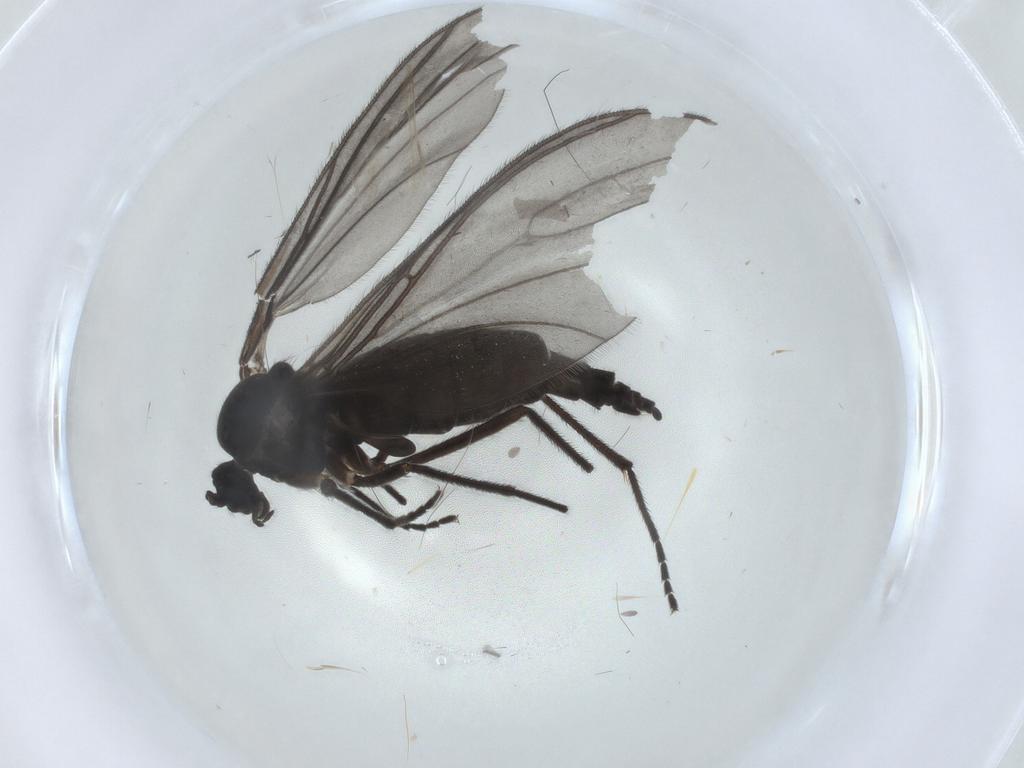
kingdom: Animalia
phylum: Arthropoda
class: Insecta
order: Diptera
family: Sciaridae
